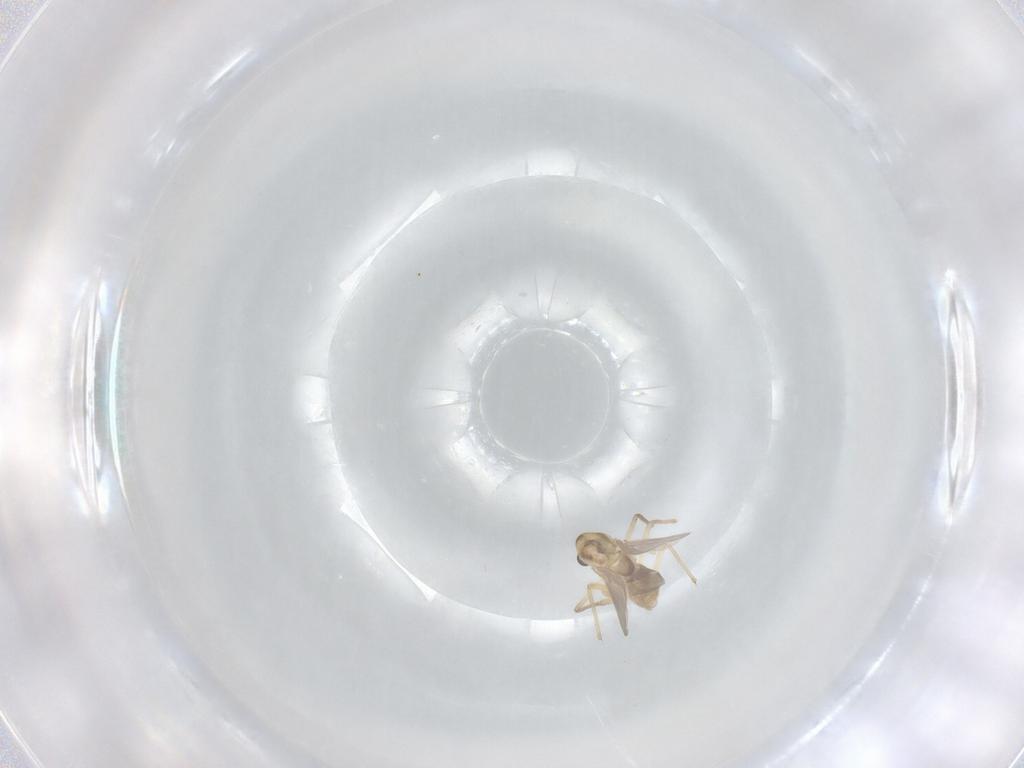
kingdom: Animalia
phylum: Arthropoda
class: Insecta
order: Diptera
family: Chironomidae
